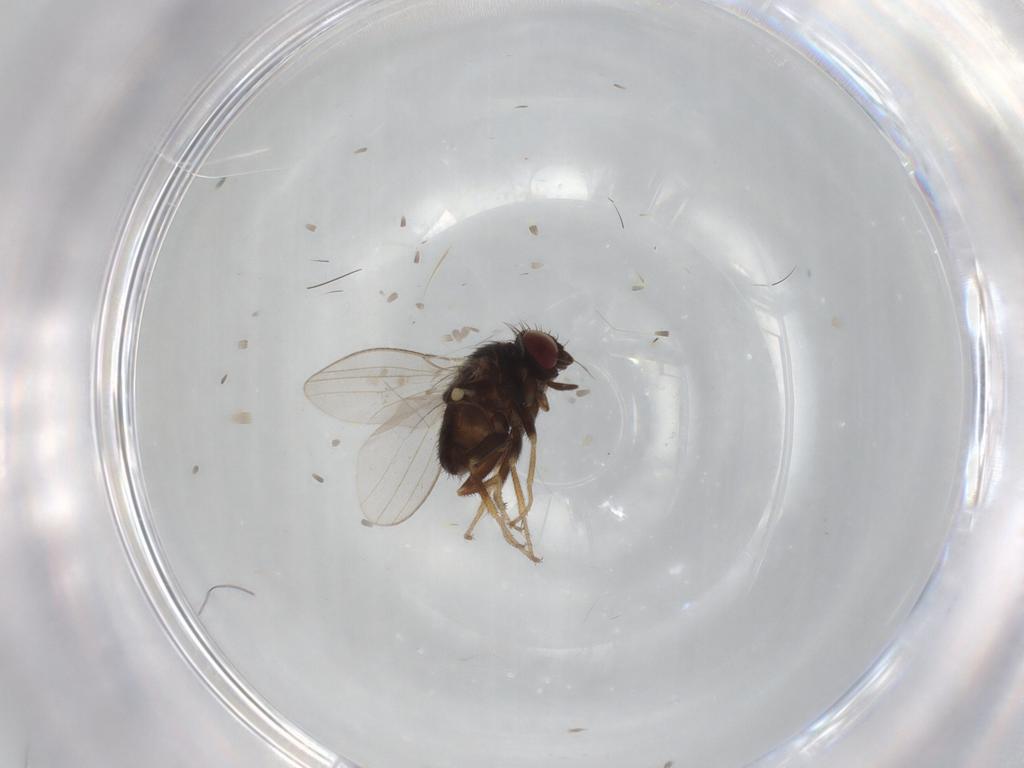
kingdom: Animalia
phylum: Arthropoda
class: Insecta
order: Diptera
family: Milichiidae
